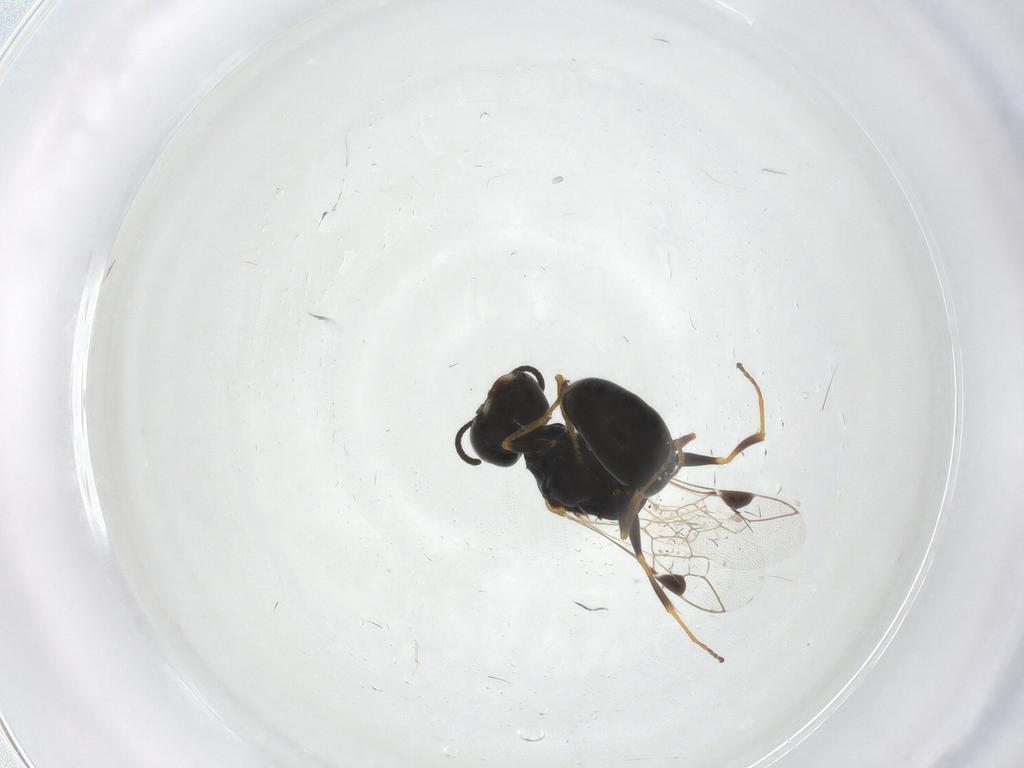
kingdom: Animalia
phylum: Arthropoda
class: Insecta
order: Hymenoptera
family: Crabronidae
